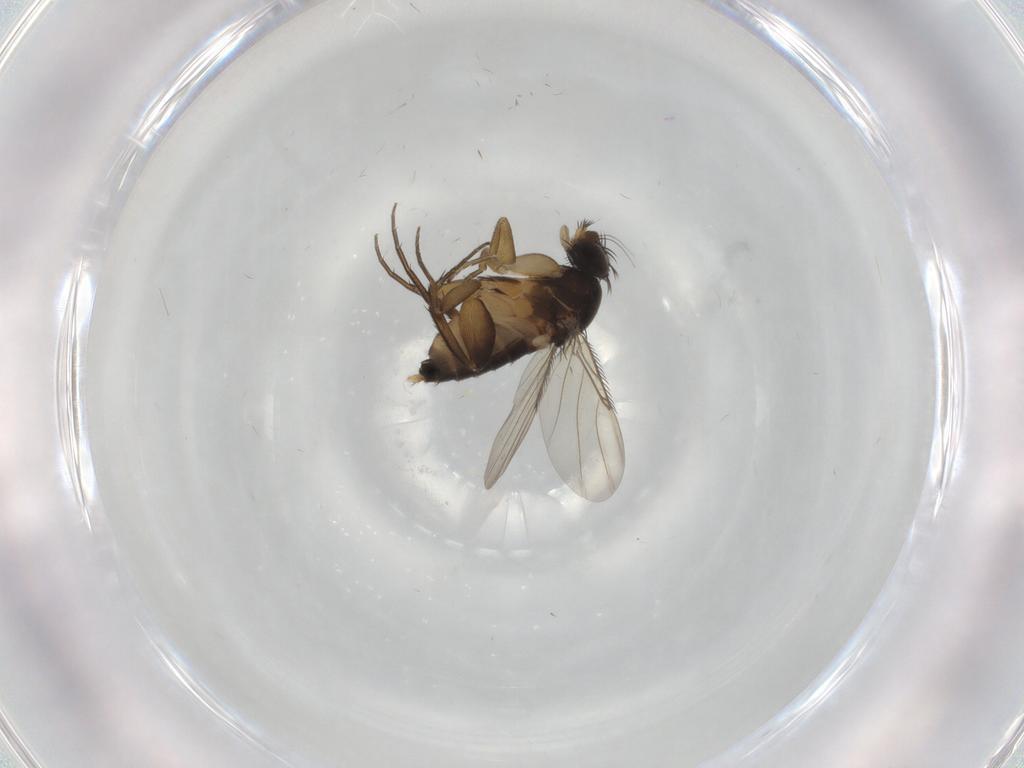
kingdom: Animalia
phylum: Arthropoda
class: Insecta
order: Diptera
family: Phoridae
